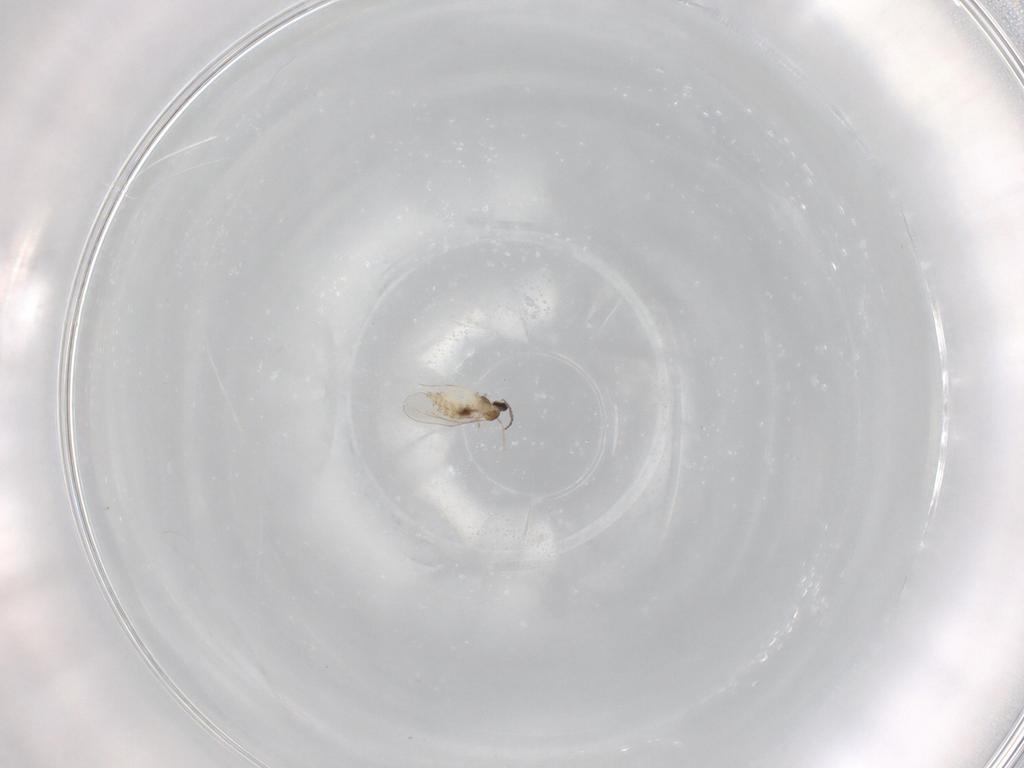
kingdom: Animalia
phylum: Arthropoda
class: Insecta
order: Diptera
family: Cecidomyiidae
